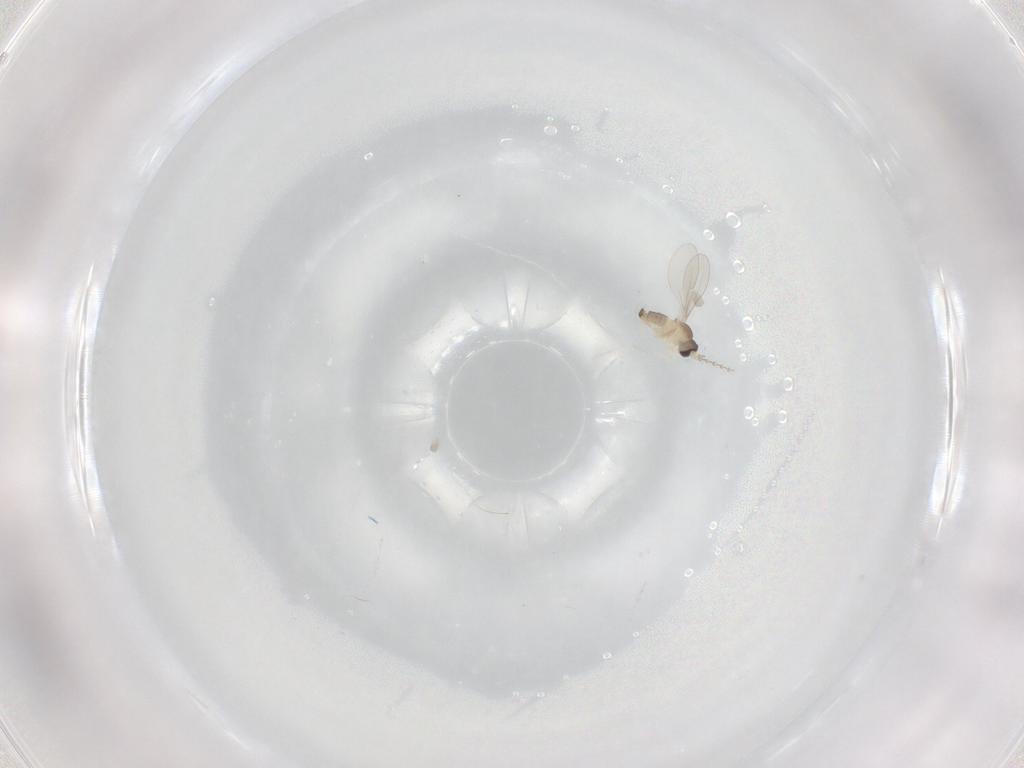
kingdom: Animalia
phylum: Arthropoda
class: Insecta
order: Diptera
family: Cecidomyiidae
